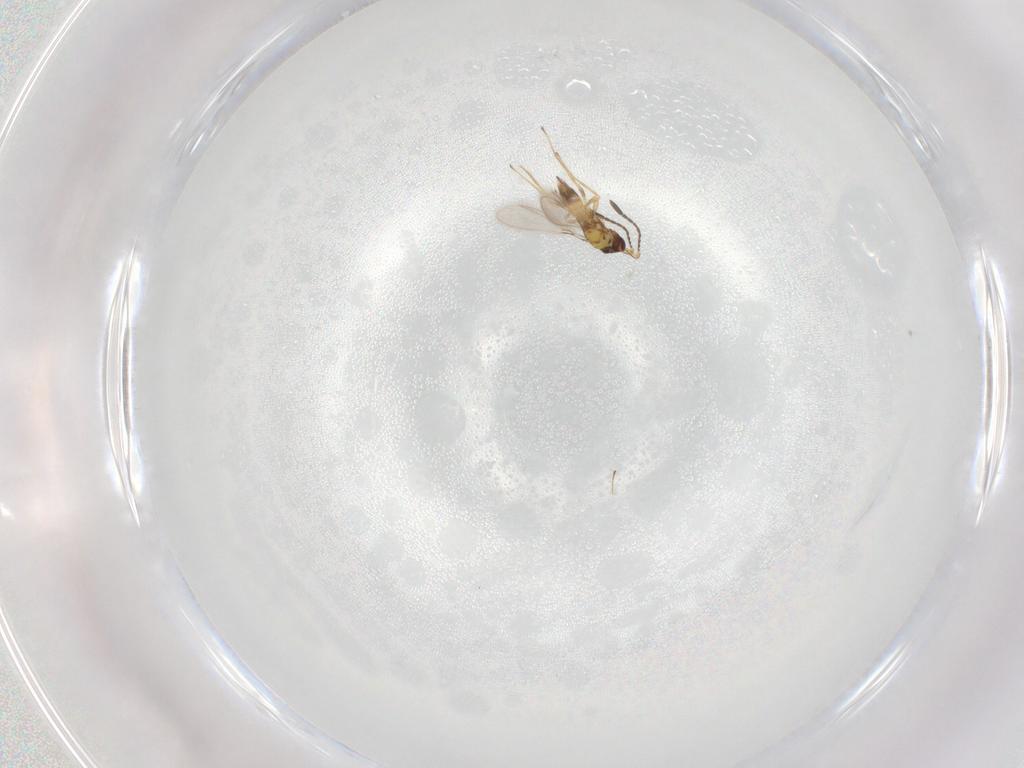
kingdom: Animalia
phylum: Arthropoda
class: Insecta
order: Hymenoptera
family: Mymaridae
